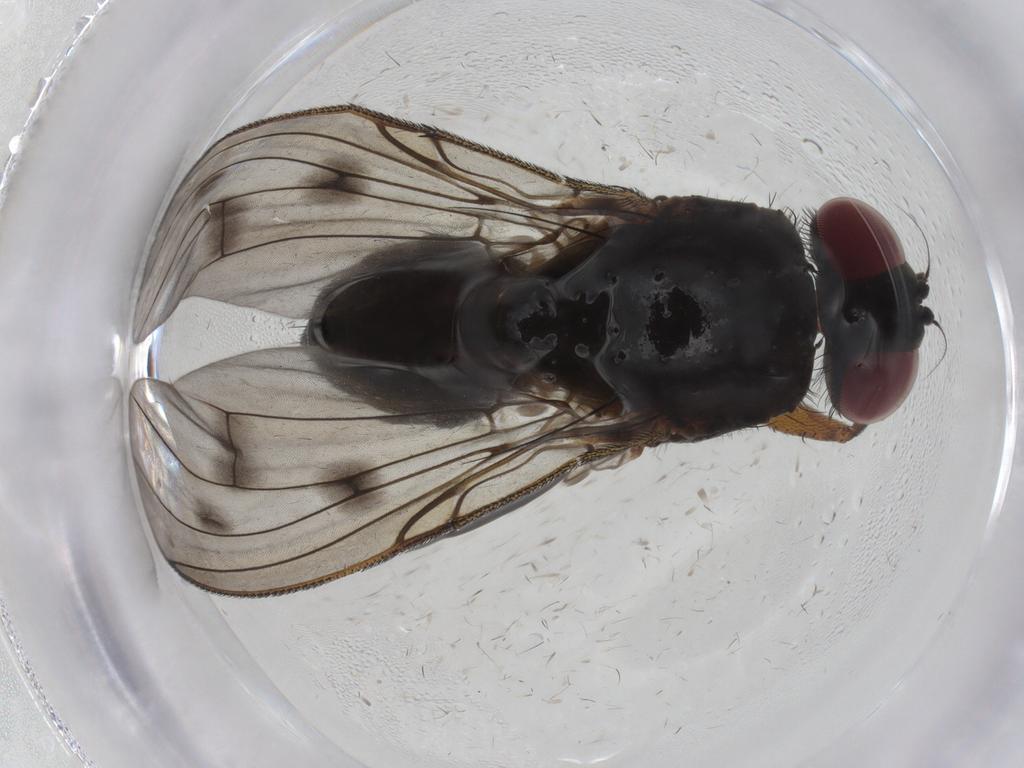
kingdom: Animalia
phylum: Arthropoda
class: Insecta
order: Diptera
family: Muscidae
